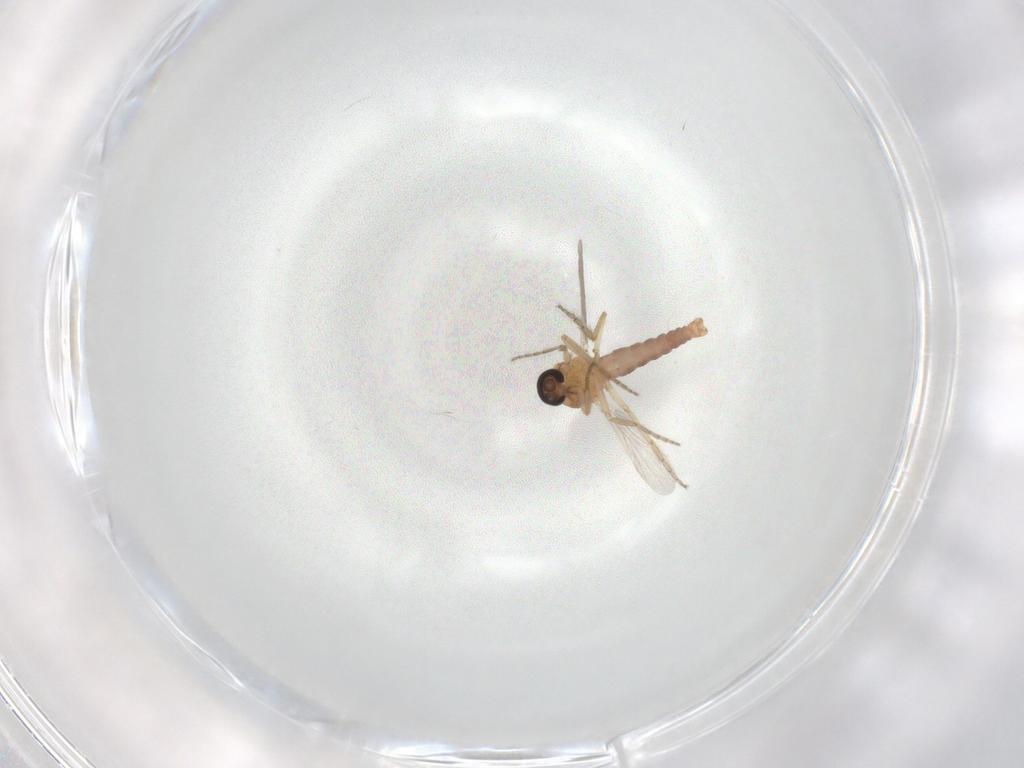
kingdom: Animalia
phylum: Arthropoda
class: Insecta
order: Diptera
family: Ceratopogonidae
